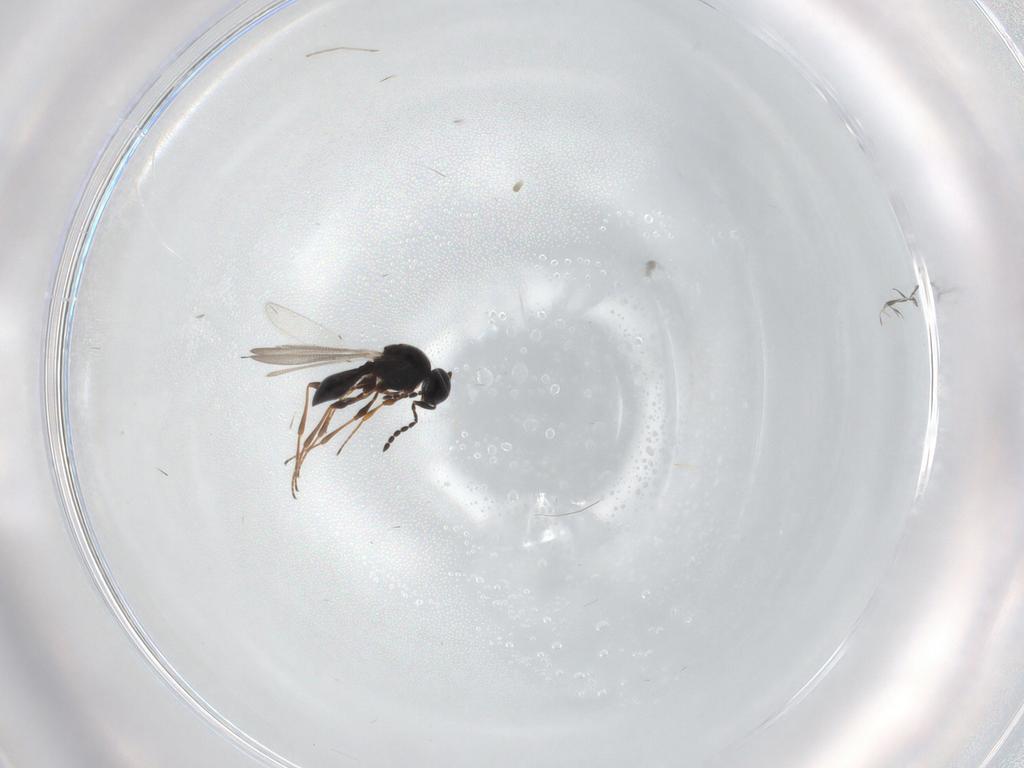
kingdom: Animalia
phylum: Arthropoda
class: Insecta
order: Hymenoptera
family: Braconidae
